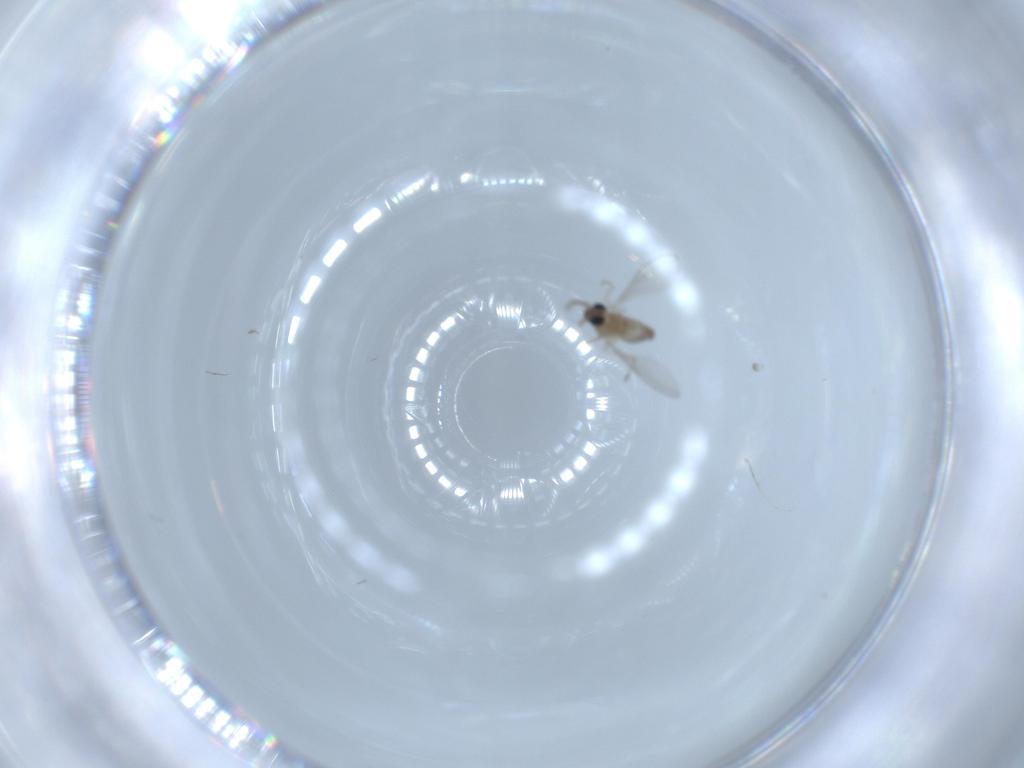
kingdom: Animalia
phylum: Arthropoda
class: Insecta
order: Diptera
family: Cecidomyiidae
